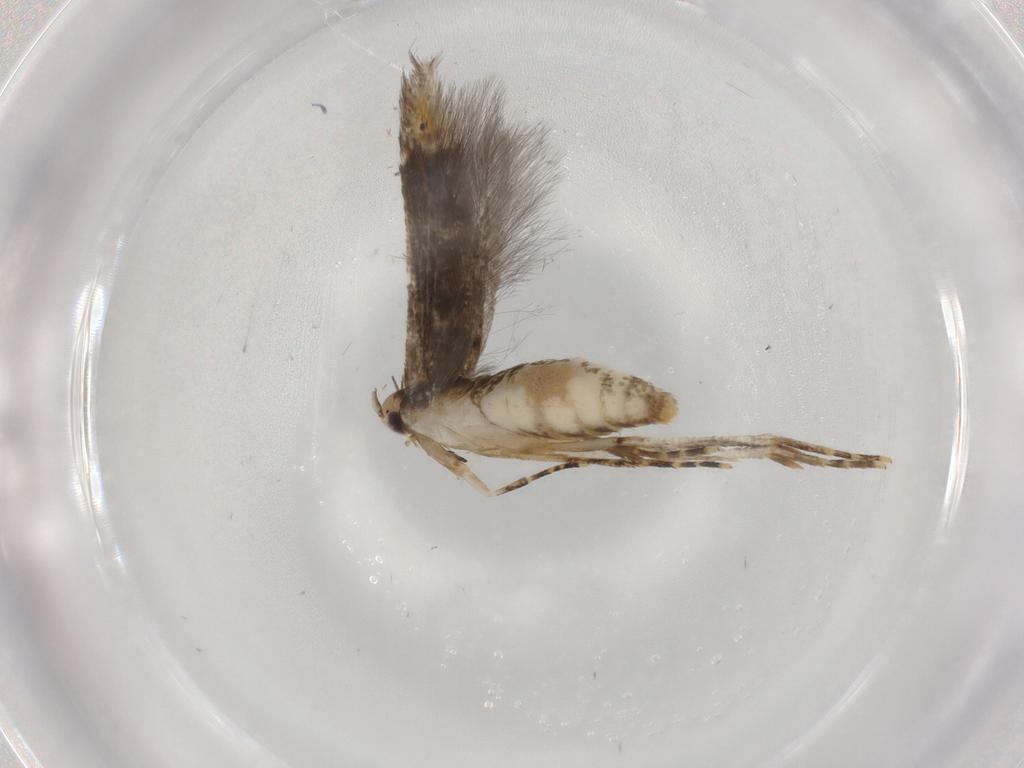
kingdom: Animalia
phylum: Arthropoda
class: Insecta
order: Lepidoptera
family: Cosmopterigidae
